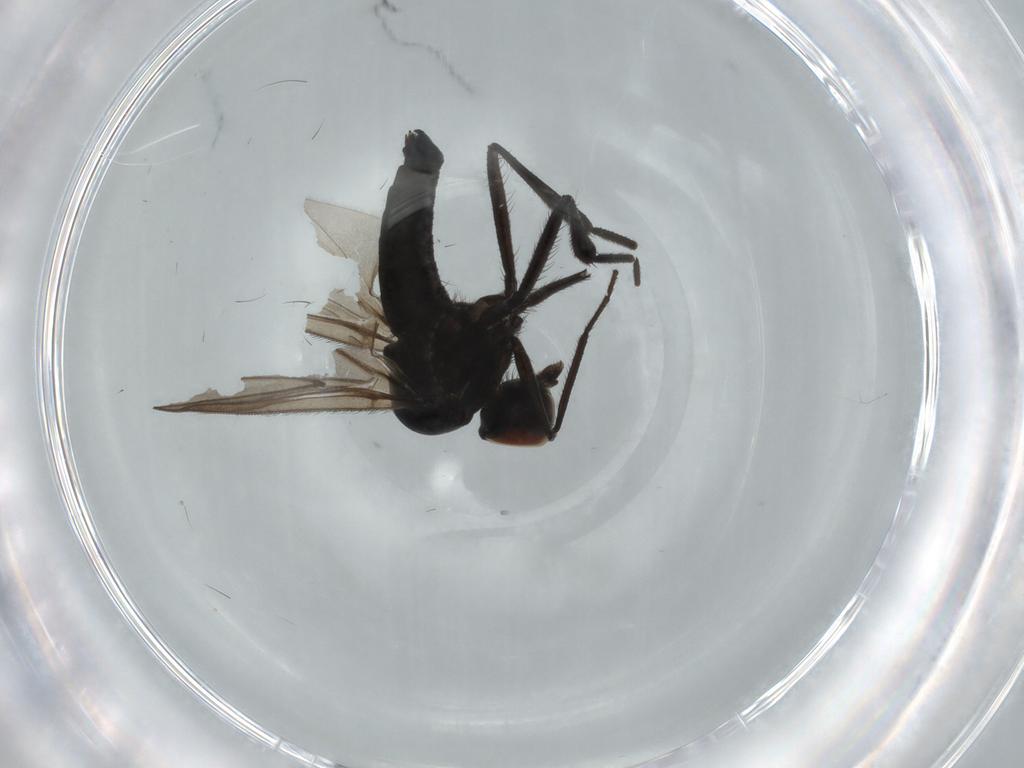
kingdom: Animalia
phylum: Arthropoda
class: Insecta
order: Diptera
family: Hybotidae
